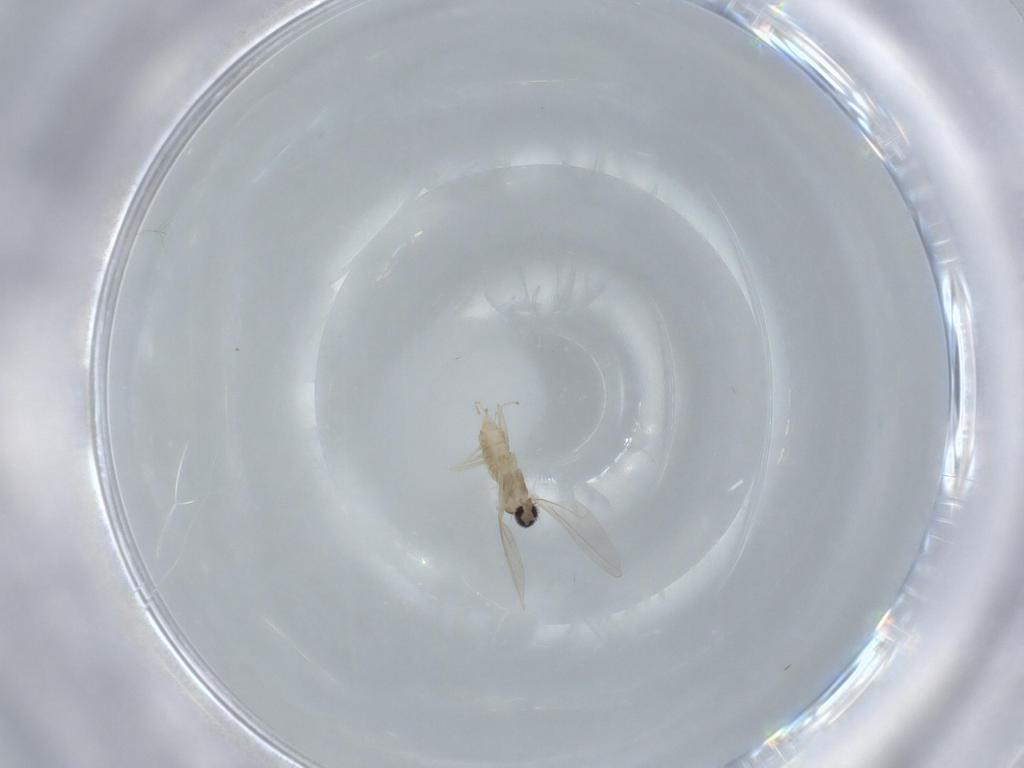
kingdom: Animalia
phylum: Arthropoda
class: Insecta
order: Diptera
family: Cecidomyiidae
